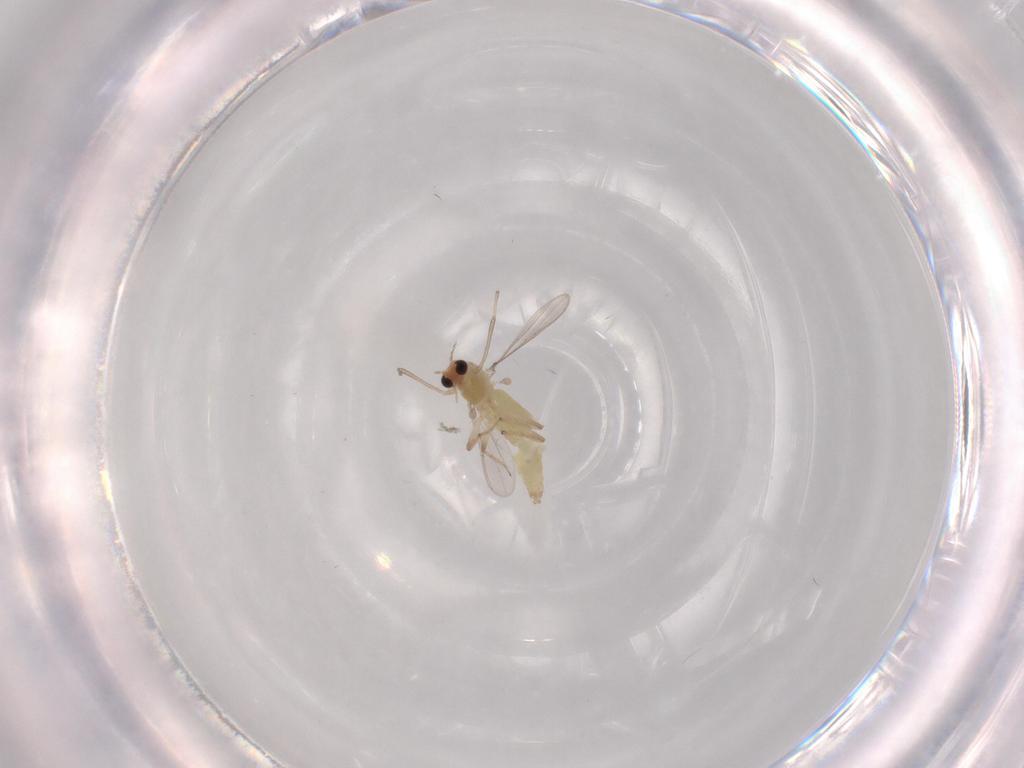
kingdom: Animalia
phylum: Arthropoda
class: Insecta
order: Diptera
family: Chironomidae
